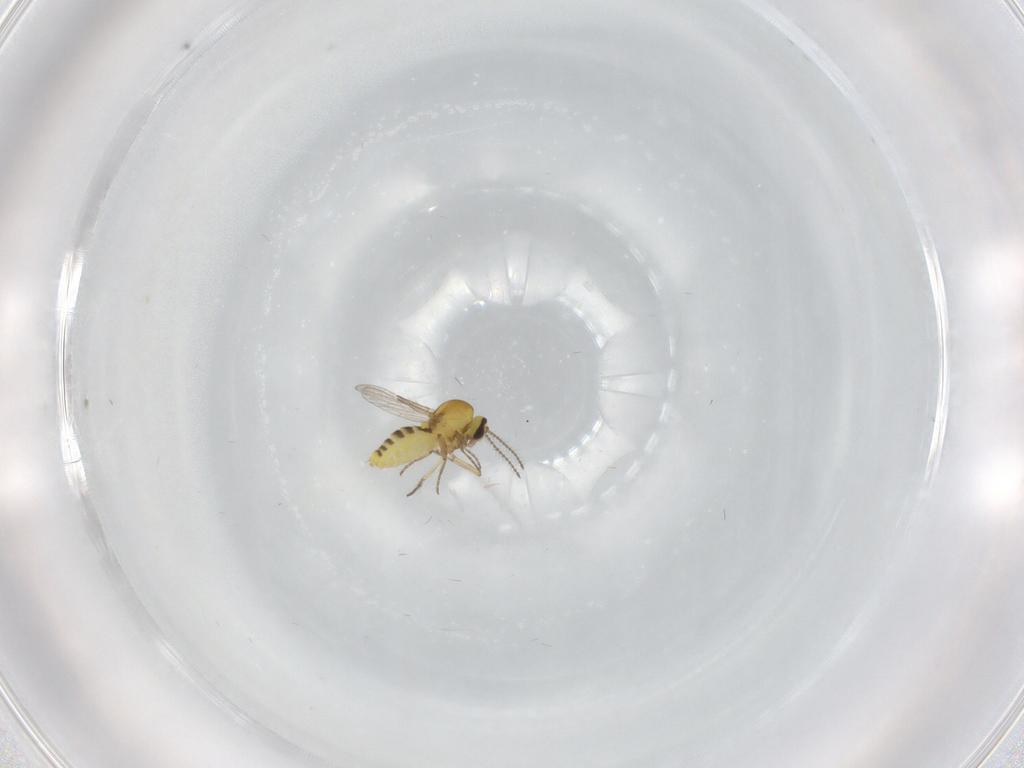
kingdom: Animalia
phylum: Arthropoda
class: Insecta
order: Diptera
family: Ceratopogonidae
